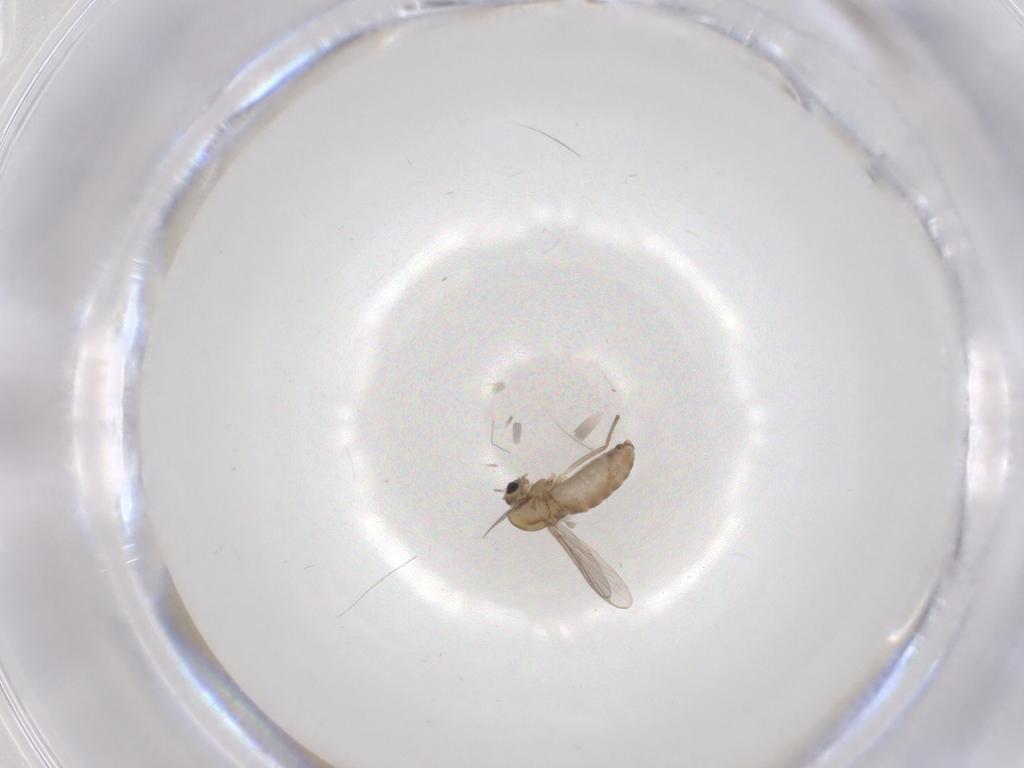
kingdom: Animalia
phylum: Arthropoda
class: Insecta
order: Diptera
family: Chironomidae
